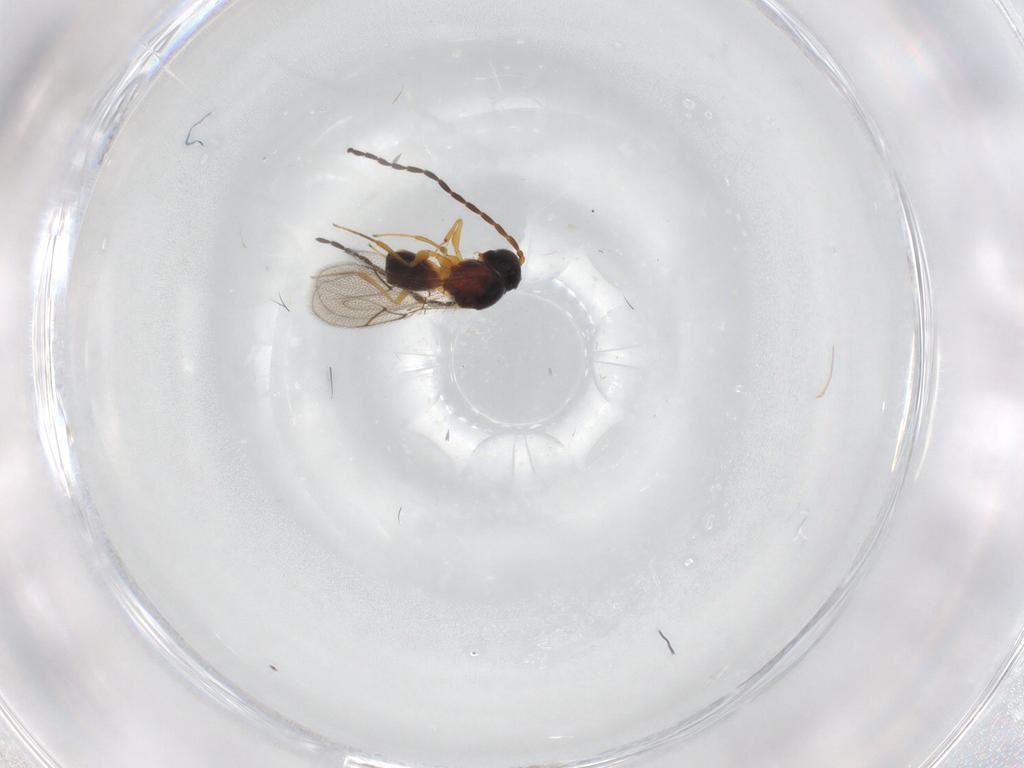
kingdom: Animalia
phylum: Arthropoda
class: Insecta
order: Hymenoptera
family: Figitidae
